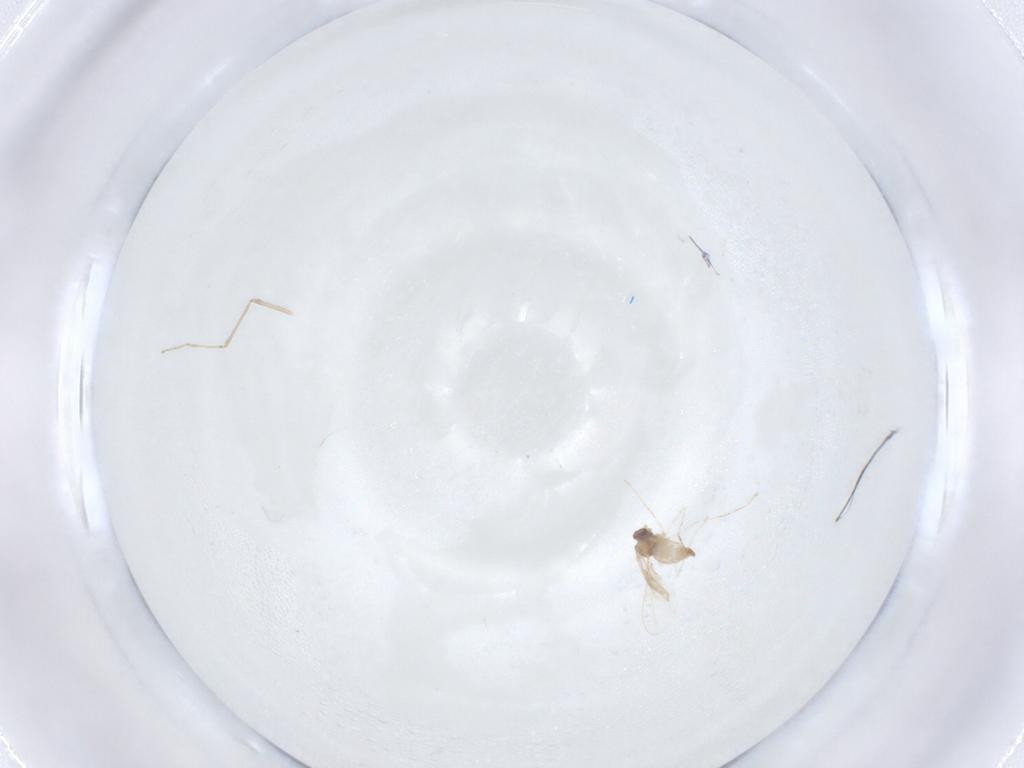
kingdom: Animalia
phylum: Arthropoda
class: Insecta
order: Diptera
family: Cecidomyiidae
